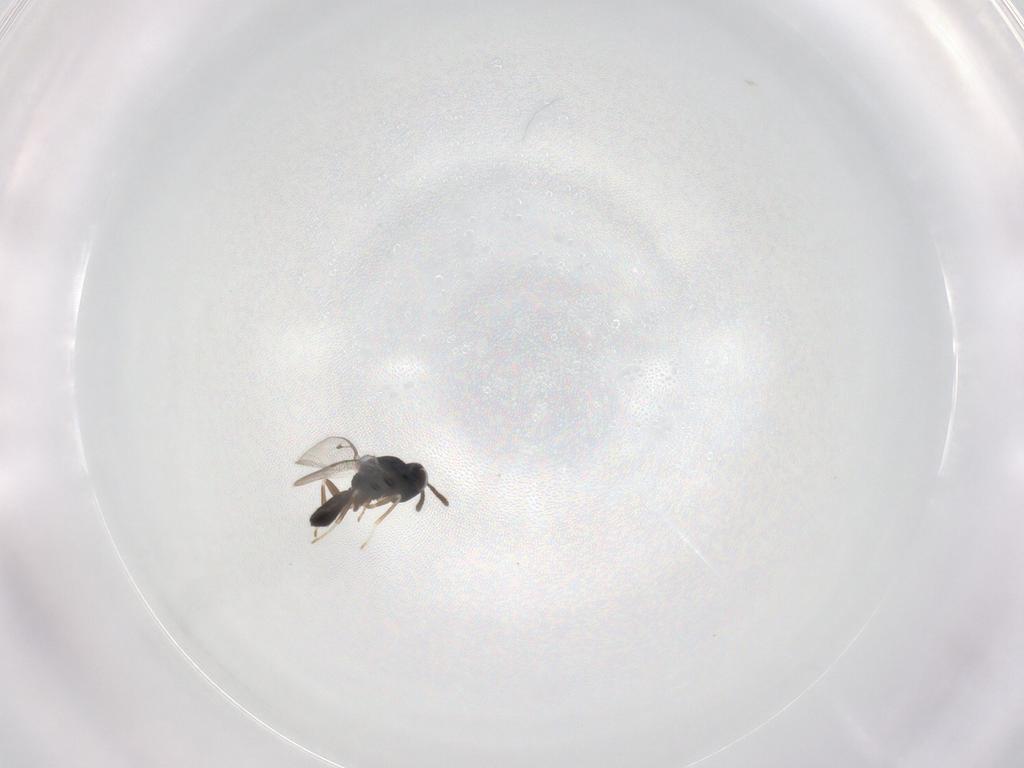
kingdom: Animalia
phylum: Arthropoda
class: Insecta
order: Hymenoptera
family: Pteromalidae
